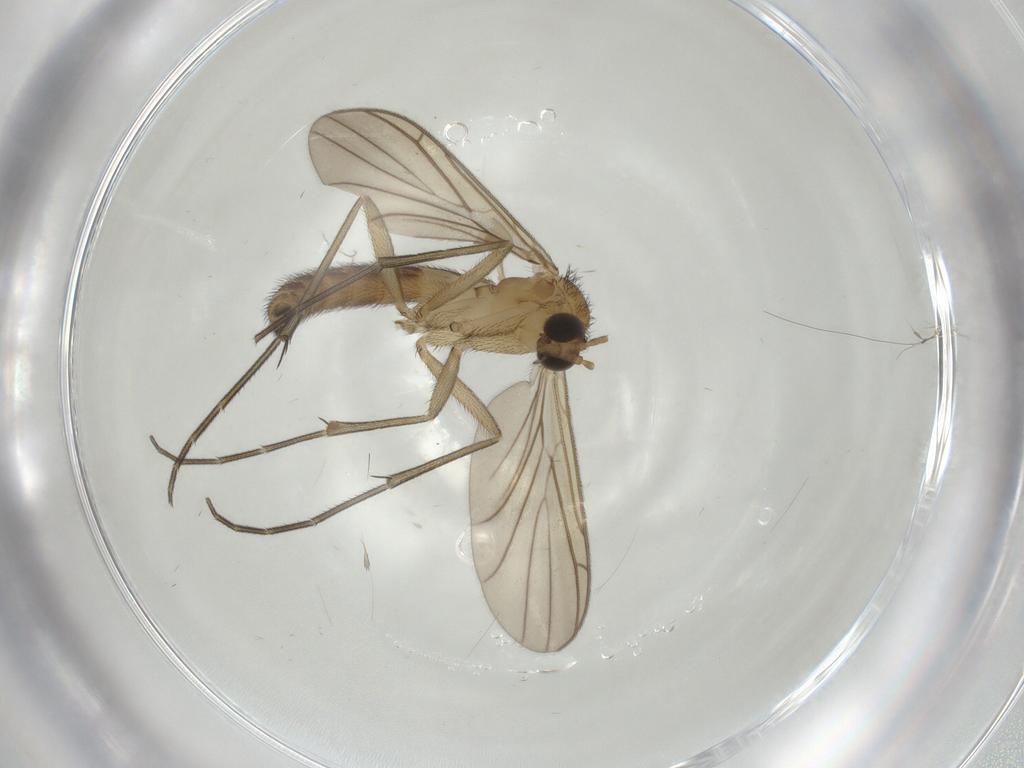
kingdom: Animalia
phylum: Arthropoda
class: Insecta
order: Diptera
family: Keroplatidae
